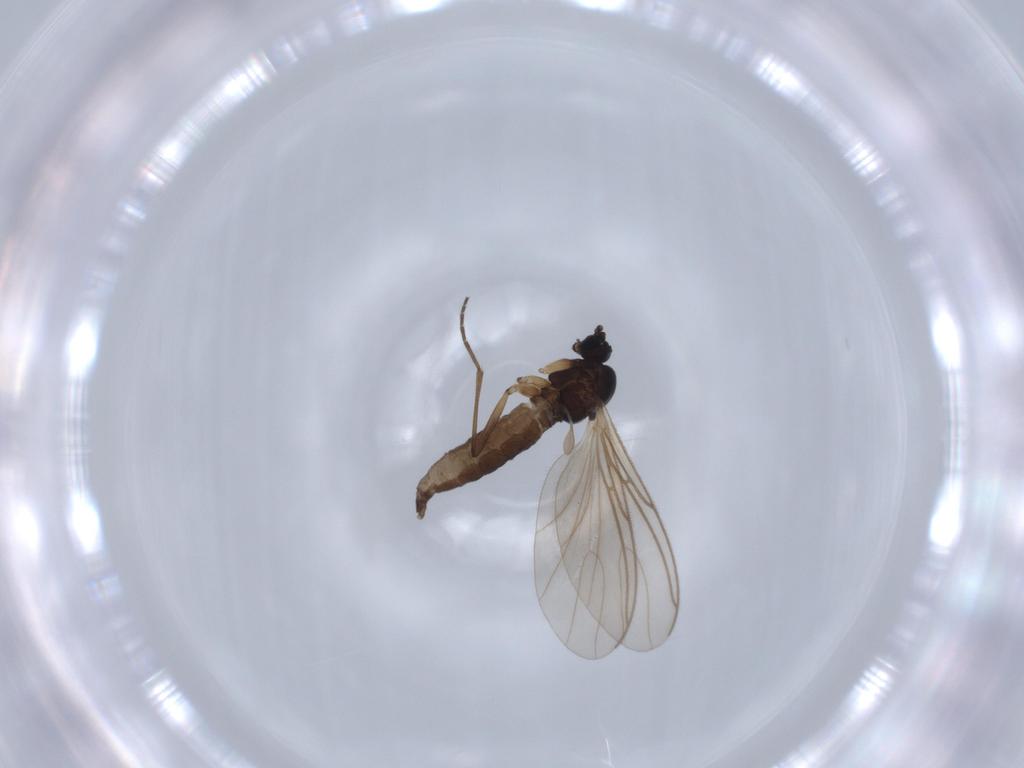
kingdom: Animalia
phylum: Arthropoda
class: Insecta
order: Diptera
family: Sciaridae
